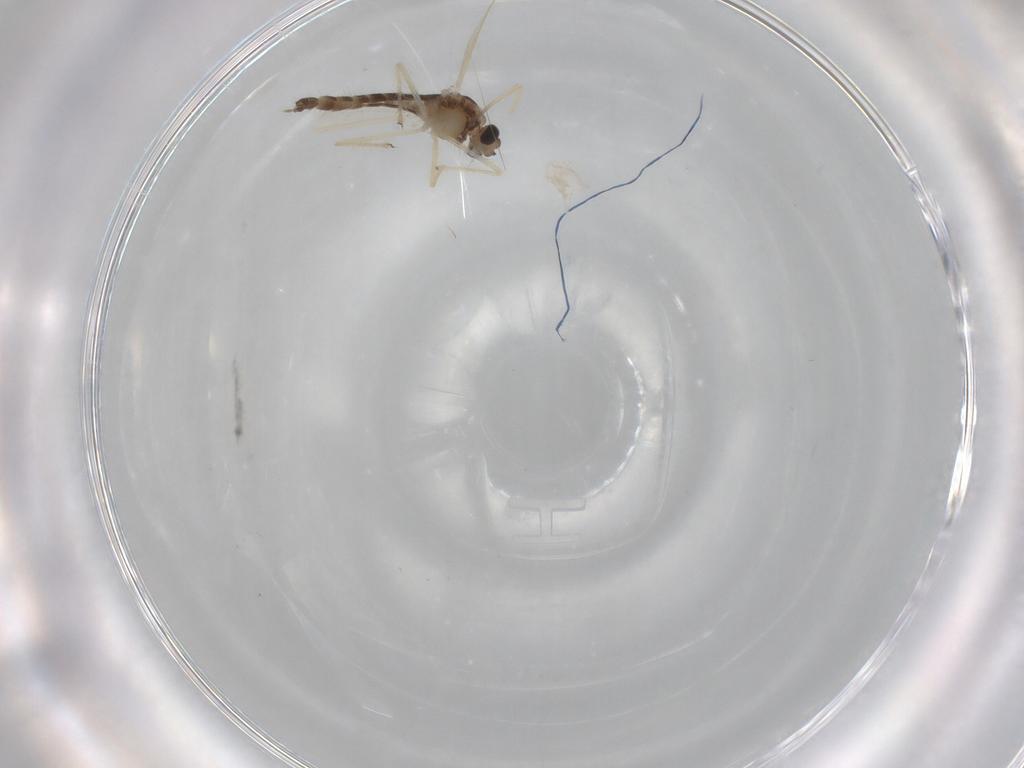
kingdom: Animalia
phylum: Arthropoda
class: Insecta
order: Diptera
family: Chironomidae
